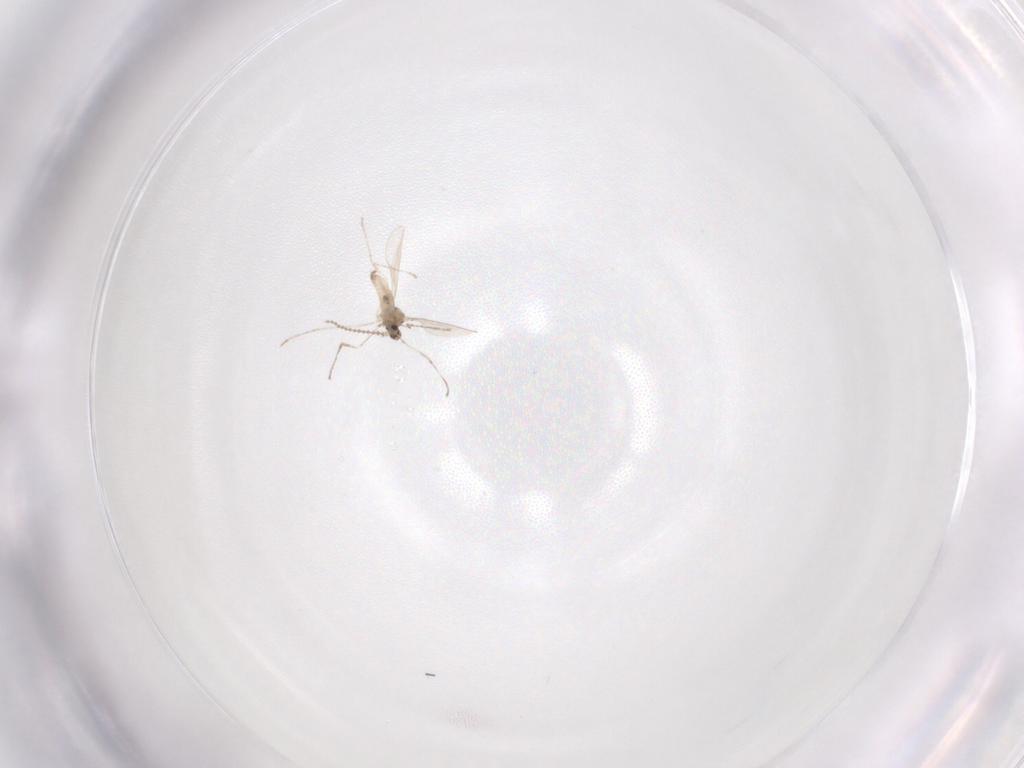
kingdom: Animalia
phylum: Arthropoda
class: Insecta
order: Diptera
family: Cecidomyiidae
